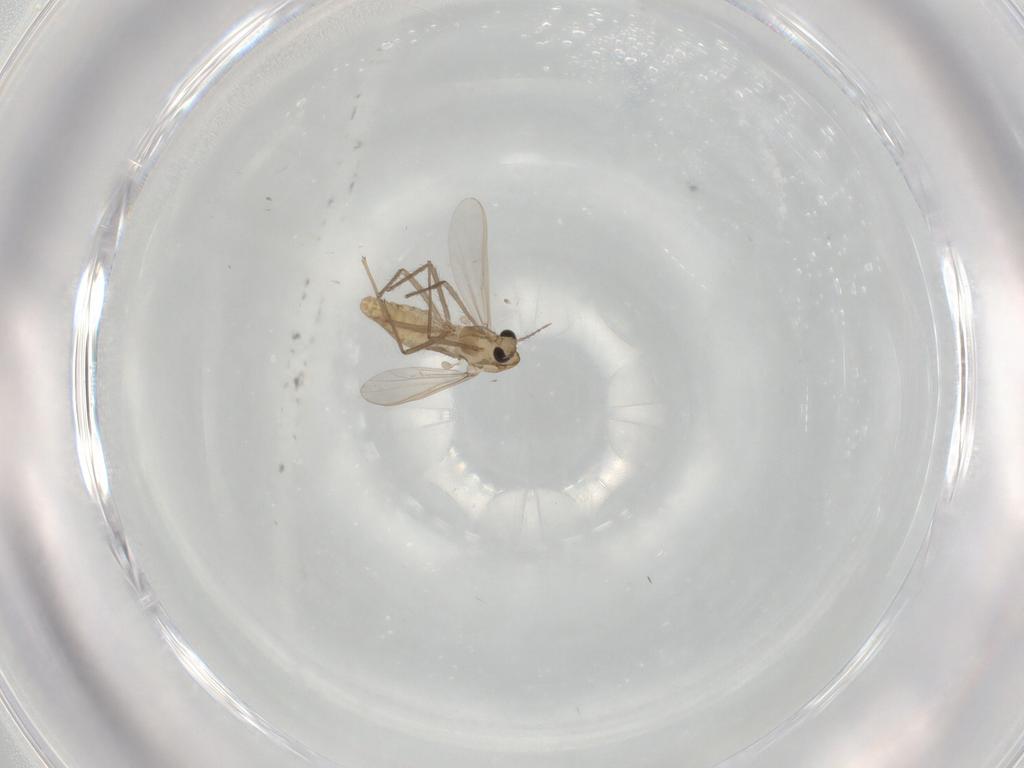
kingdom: Animalia
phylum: Arthropoda
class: Insecta
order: Diptera
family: Chironomidae
